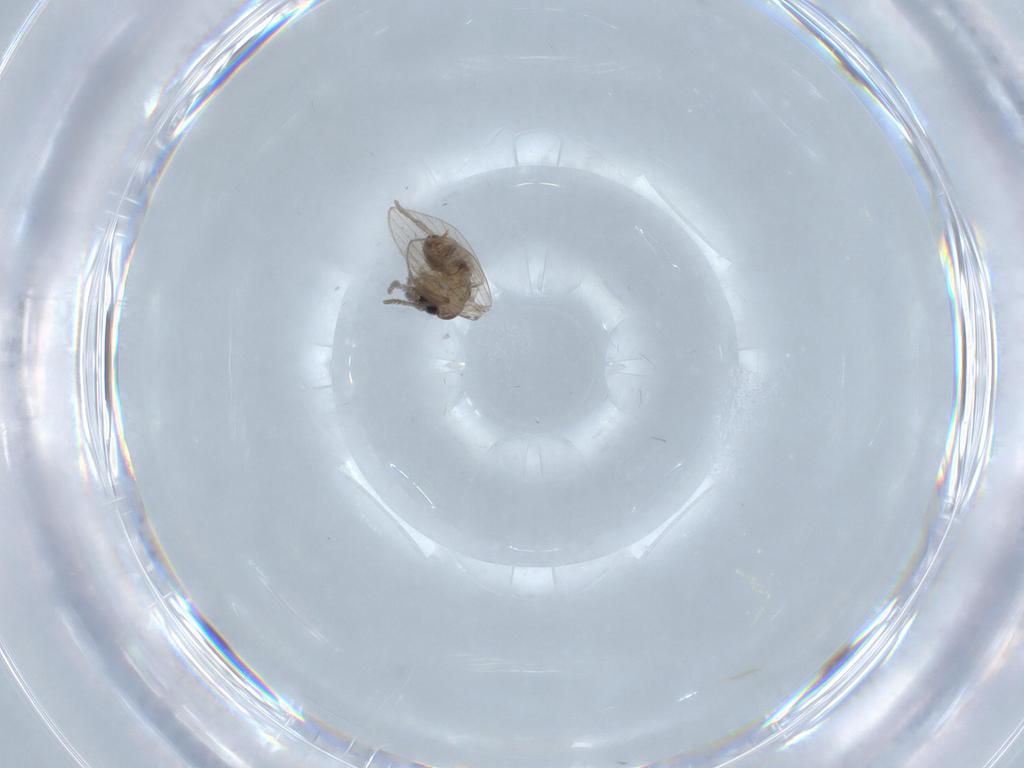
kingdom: Animalia
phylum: Arthropoda
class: Insecta
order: Diptera
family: Psychodidae
